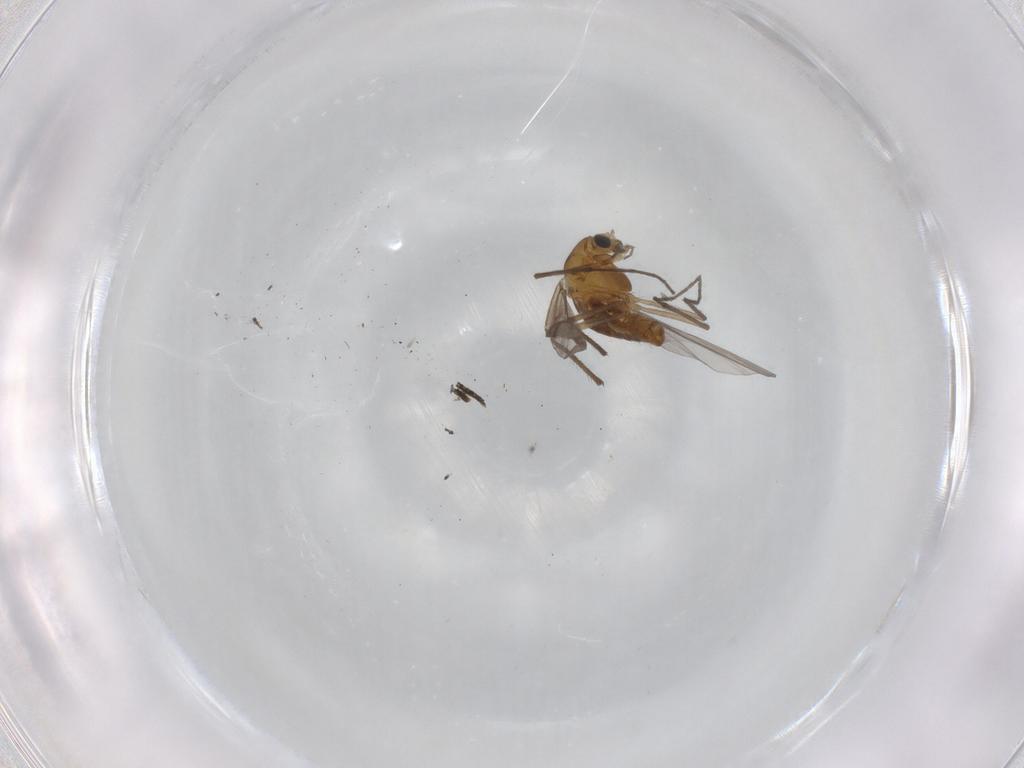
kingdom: Animalia
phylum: Arthropoda
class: Insecta
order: Diptera
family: Anthomyiidae
